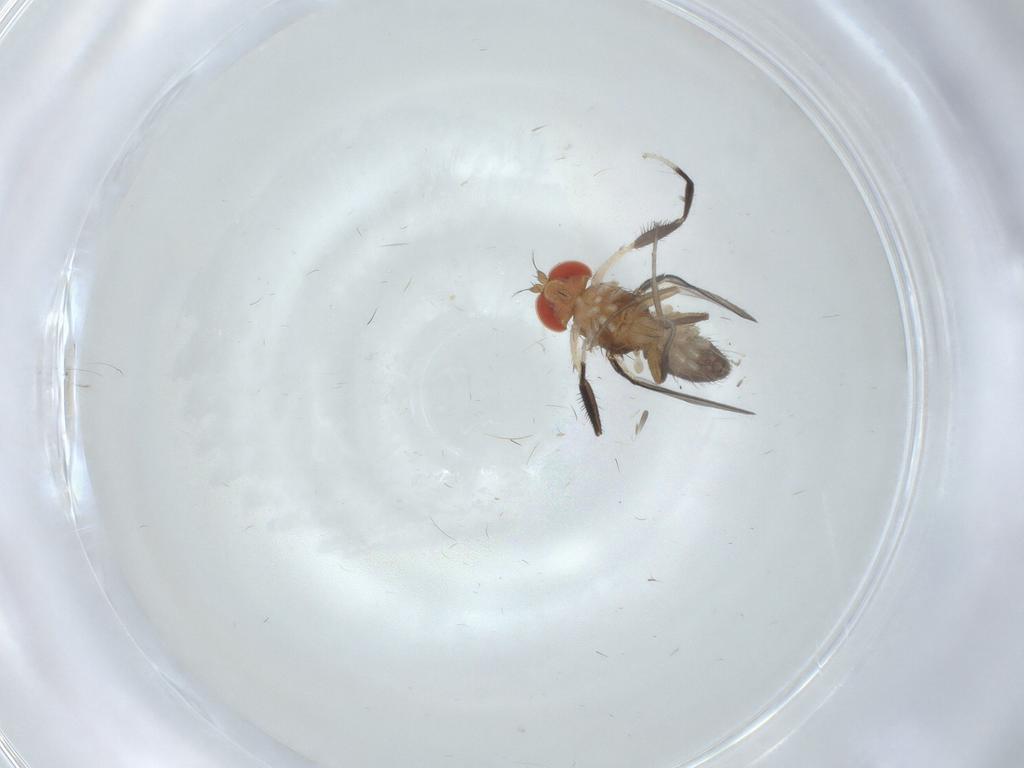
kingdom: Animalia
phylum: Arthropoda
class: Insecta
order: Diptera
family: Drosophilidae
